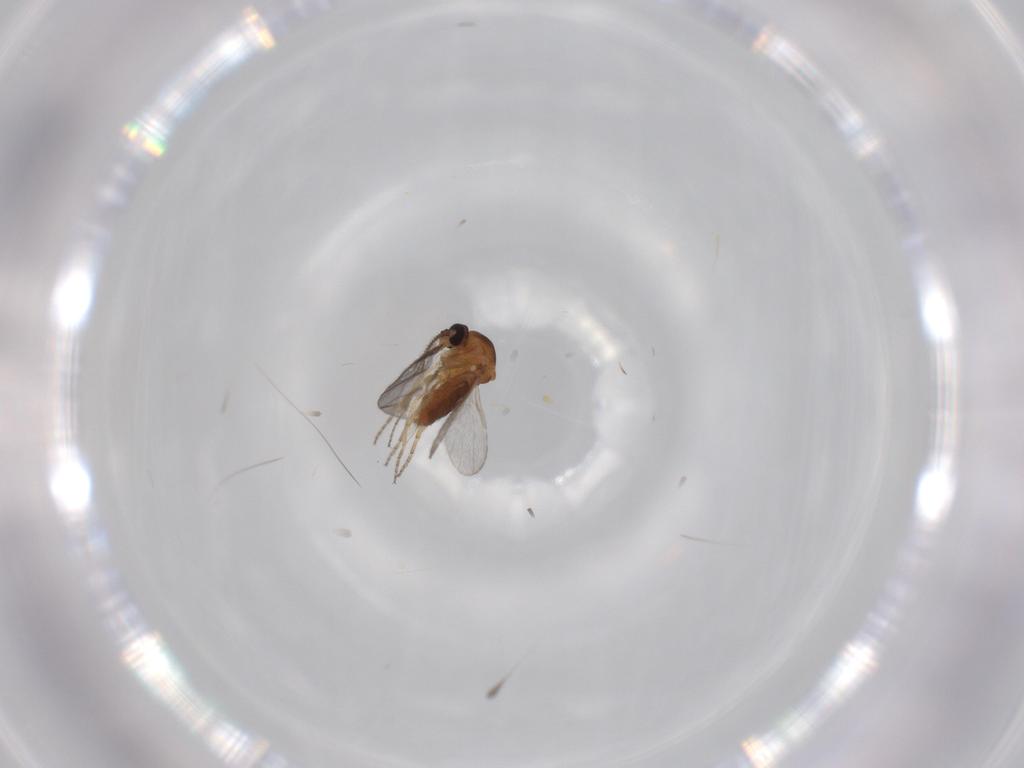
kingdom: Animalia
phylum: Arthropoda
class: Insecta
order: Diptera
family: Ceratopogonidae
